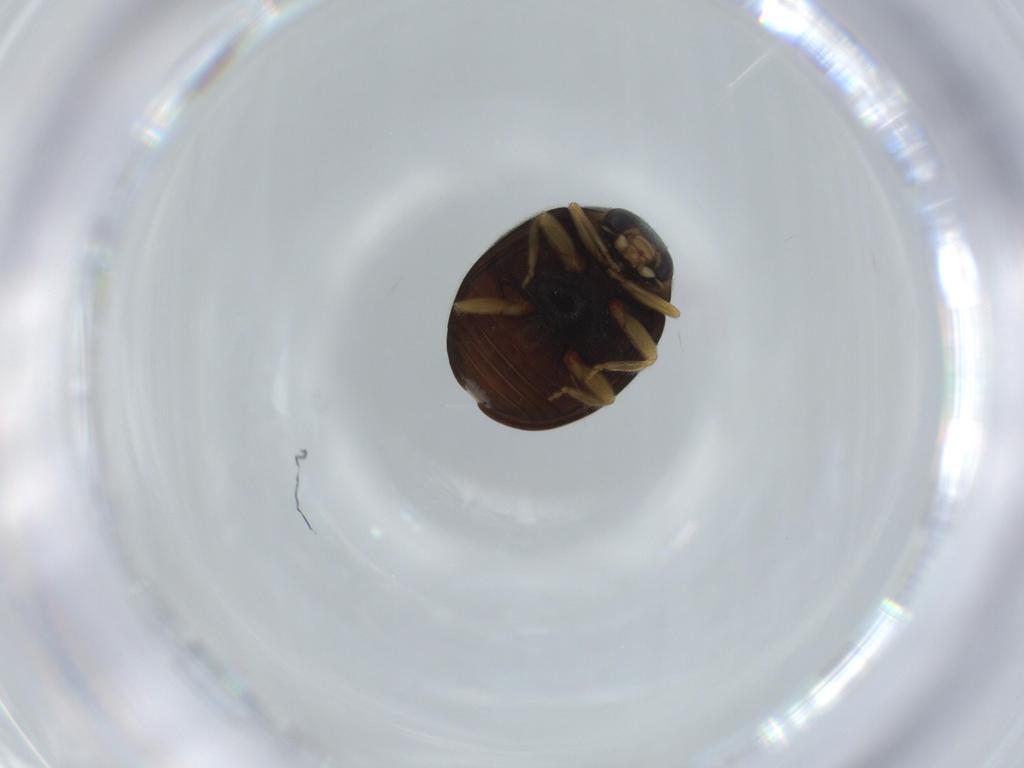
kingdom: Animalia
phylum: Arthropoda
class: Insecta
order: Coleoptera
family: Coccinellidae
